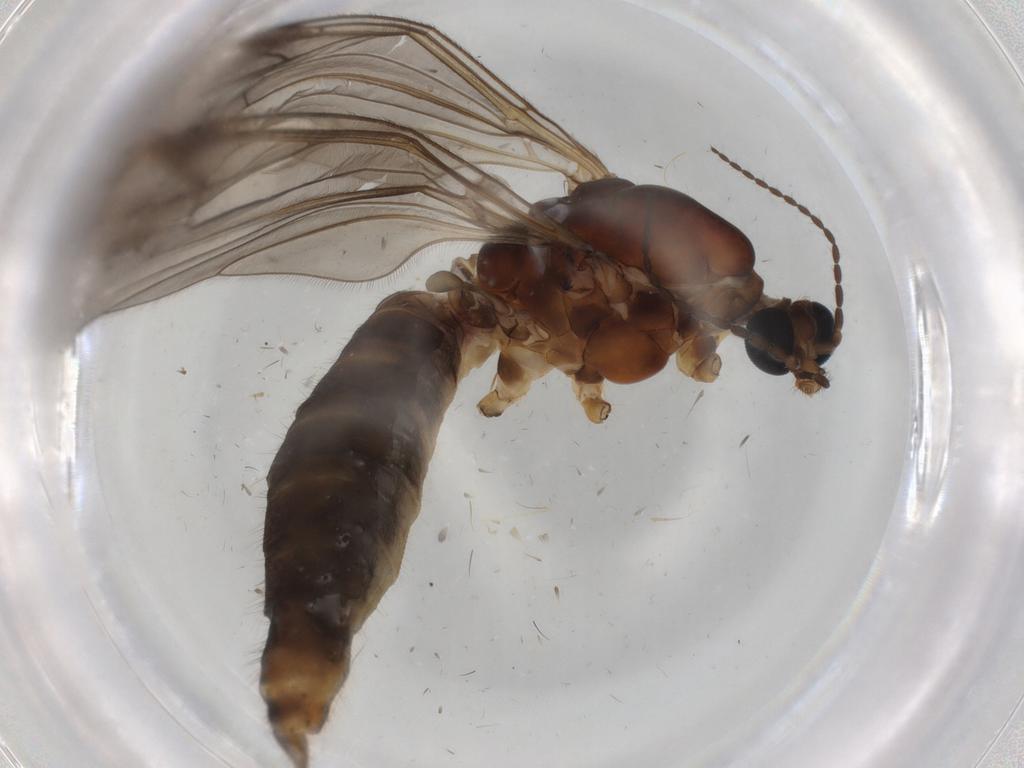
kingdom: Animalia
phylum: Arthropoda
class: Insecta
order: Diptera
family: Limoniidae
